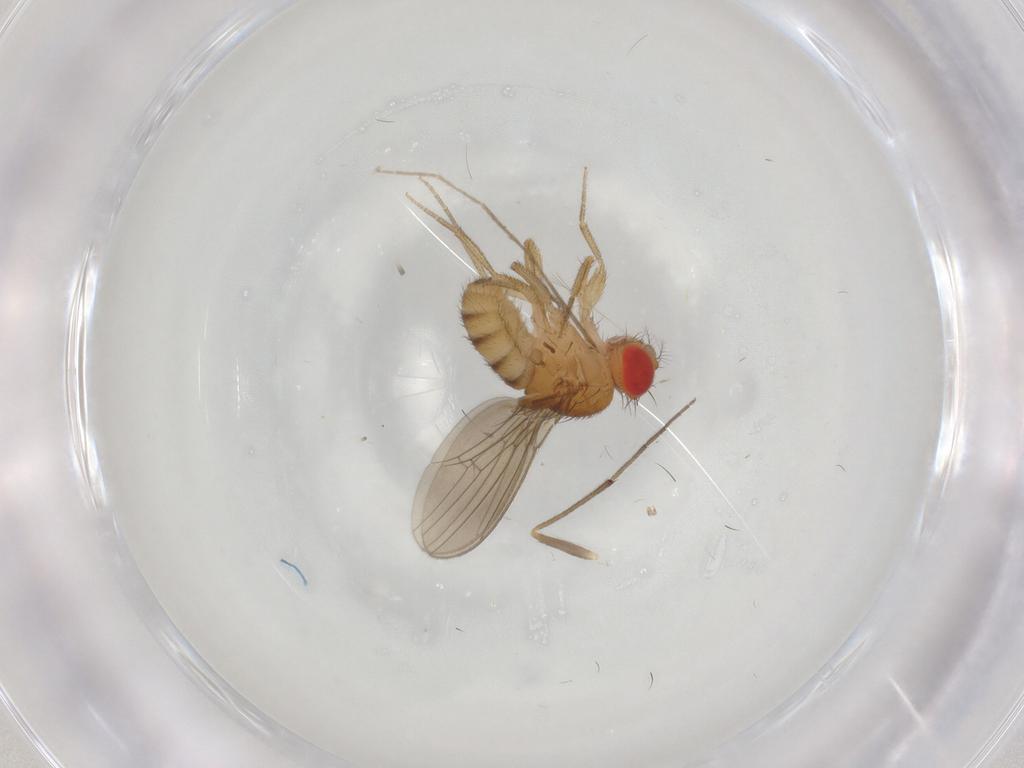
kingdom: Animalia
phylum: Arthropoda
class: Insecta
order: Diptera
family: Drosophilidae
